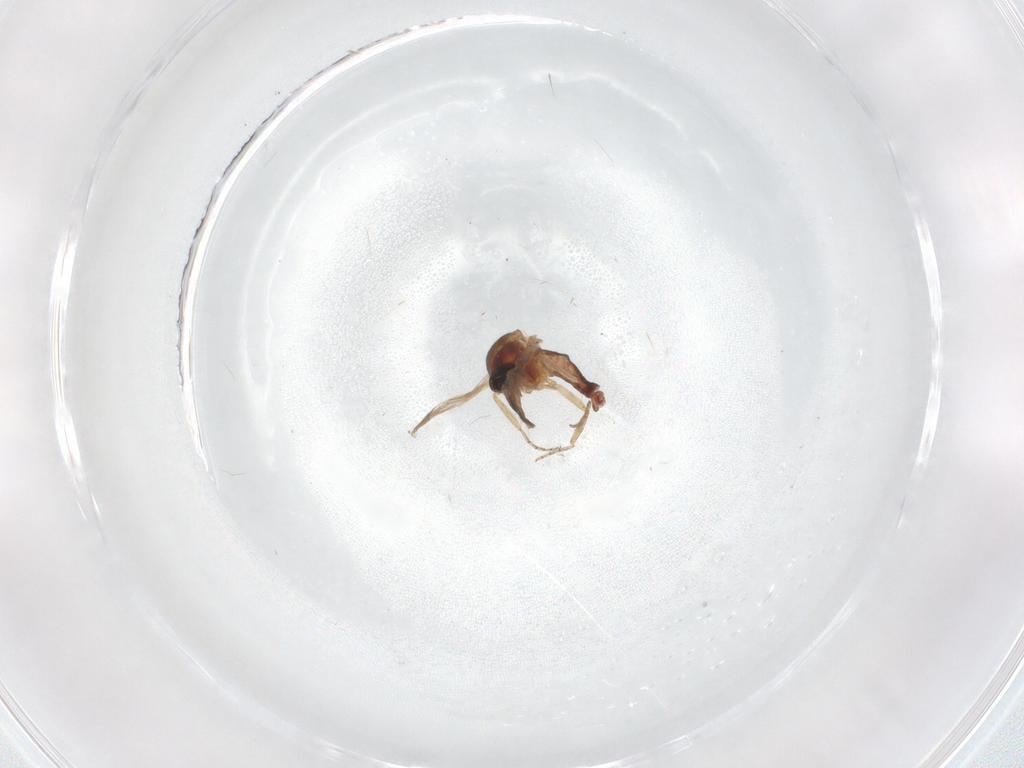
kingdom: Animalia
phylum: Arthropoda
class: Insecta
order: Diptera
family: Ceratopogonidae
